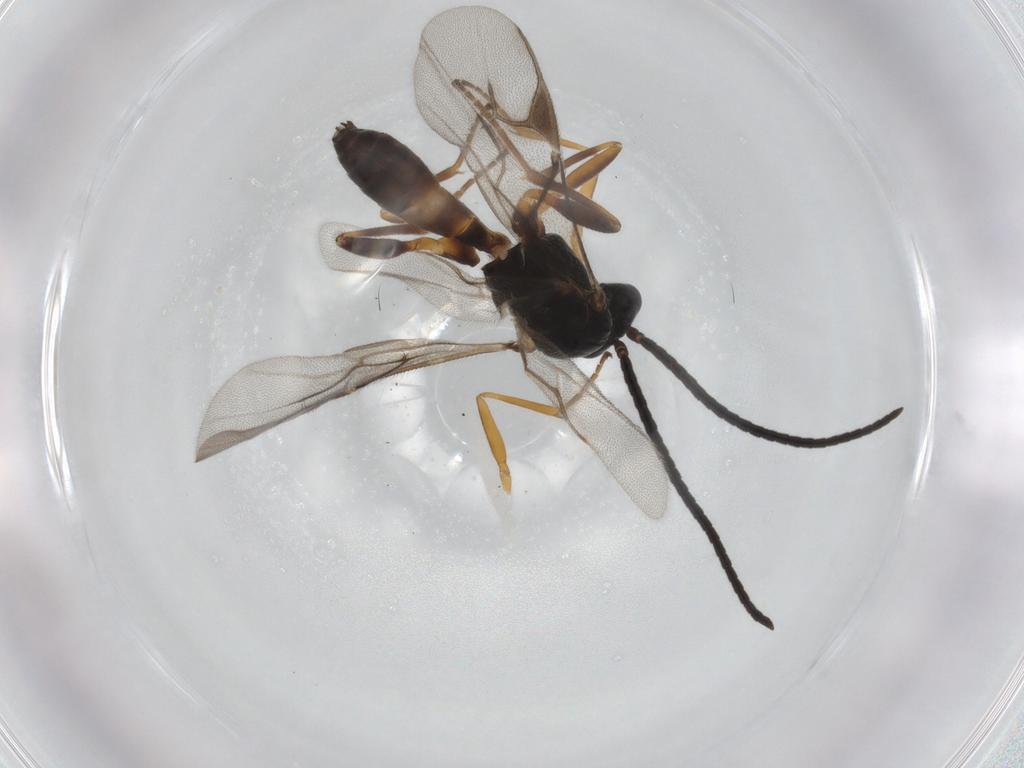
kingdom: Animalia
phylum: Arthropoda
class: Insecta
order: Hymenoptera
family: Braconidae
